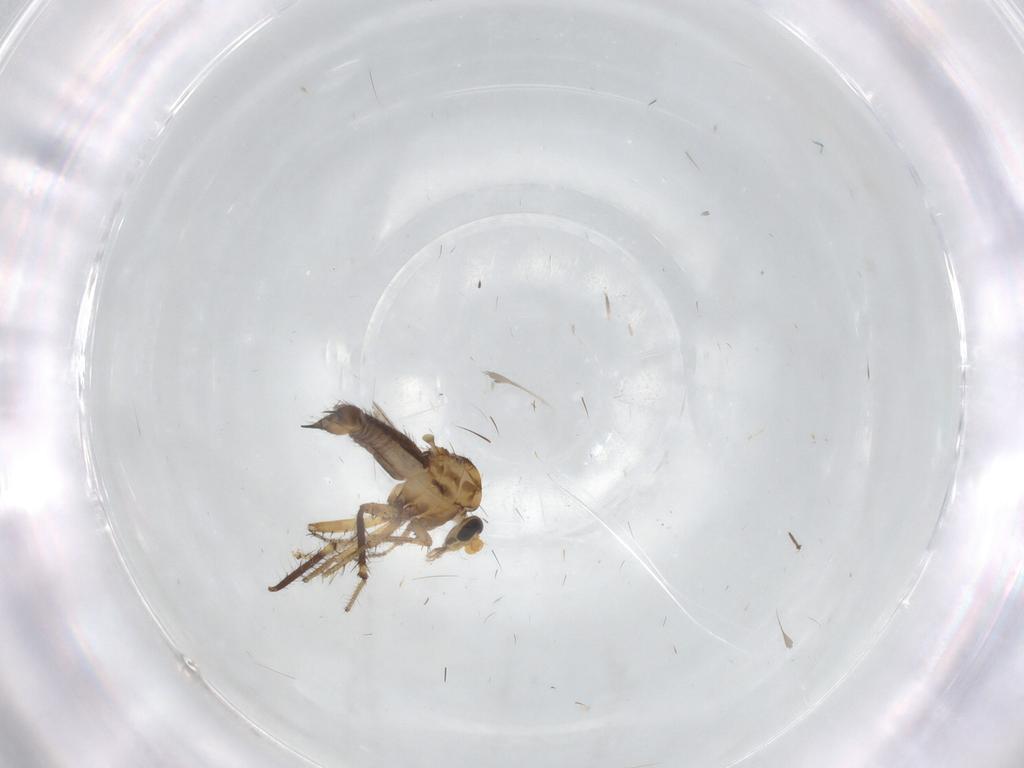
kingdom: Animalia
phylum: Arthropoda
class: Insecta
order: Diptera
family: Ceratopogonidae
